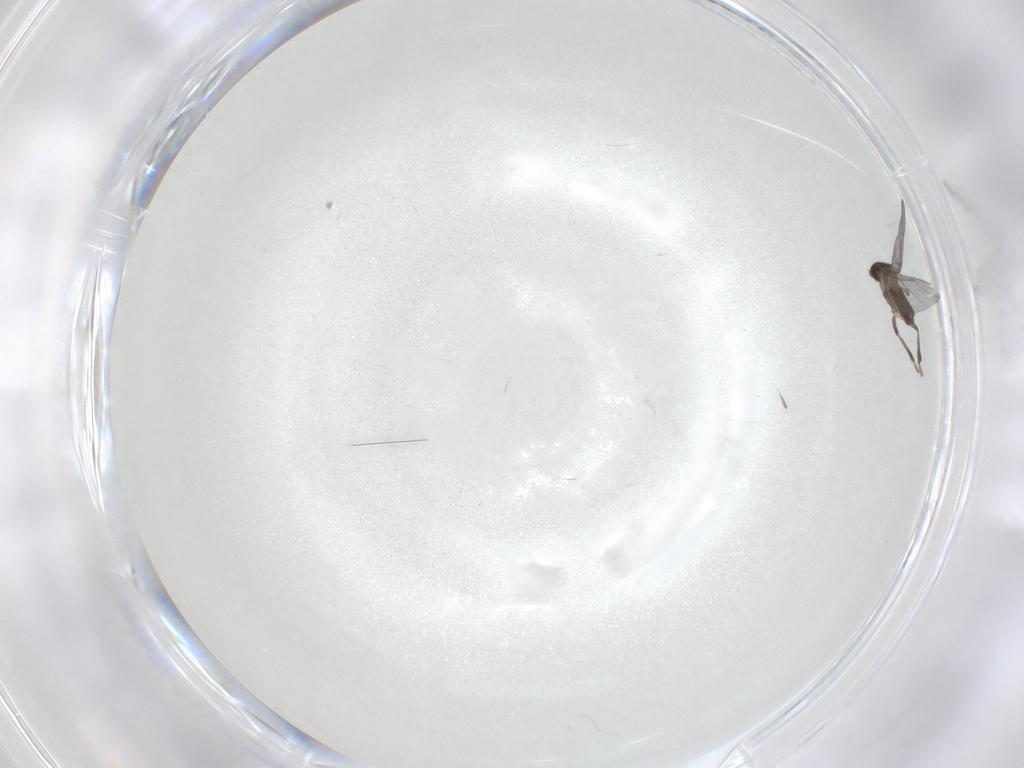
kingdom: Animalia
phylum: Arthropoda
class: Insecta
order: Diptera
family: Phoridae
